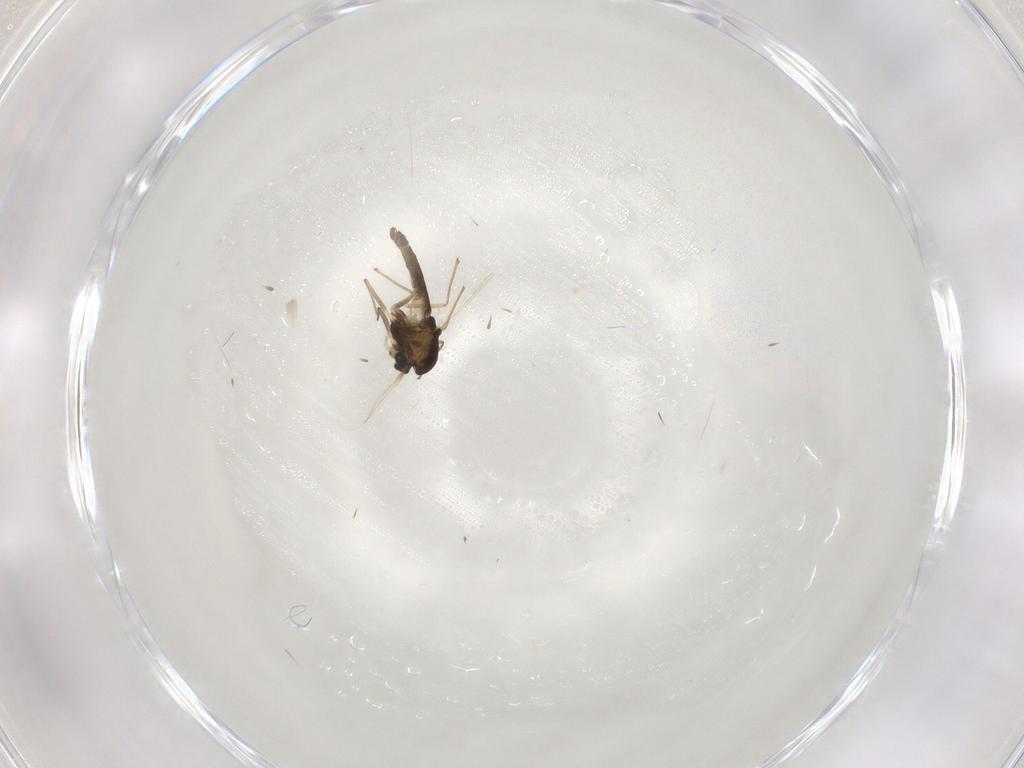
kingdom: Animalia
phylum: Arthropoda
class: Insecta
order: Diptera
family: Chironomidae
